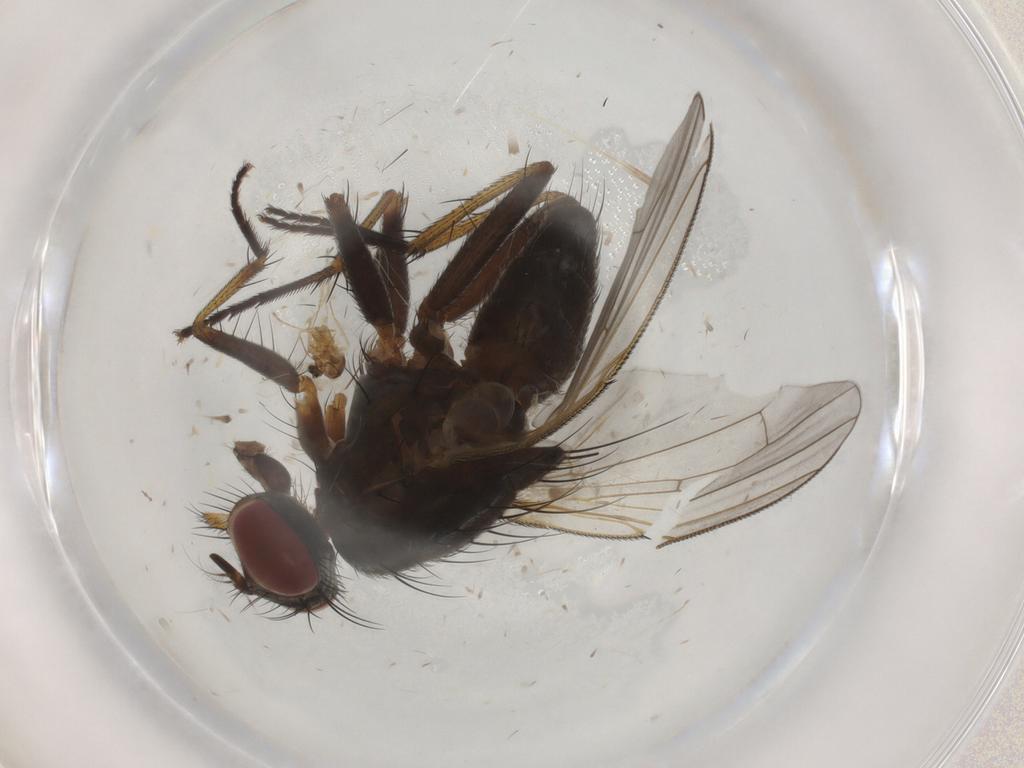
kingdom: Animalia
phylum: Arthropoda
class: Insecta
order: Diptera
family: Muscidae
